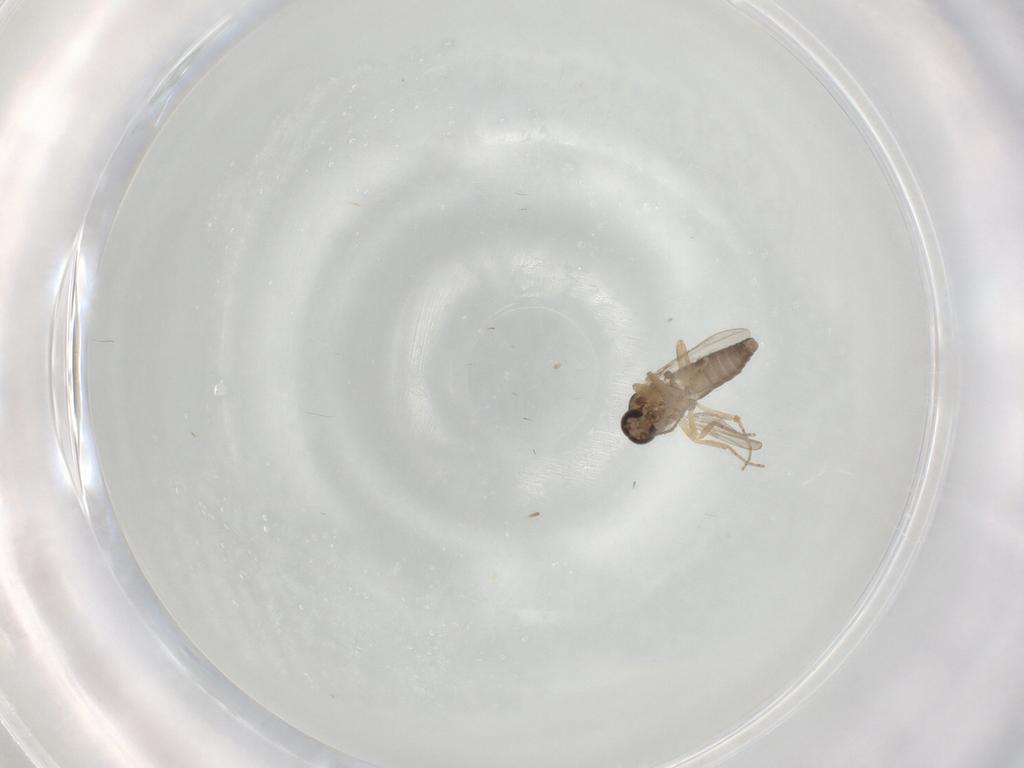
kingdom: Animalia
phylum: Arthropoda
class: Insecta
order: Diptera
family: Ceratopogonidae
